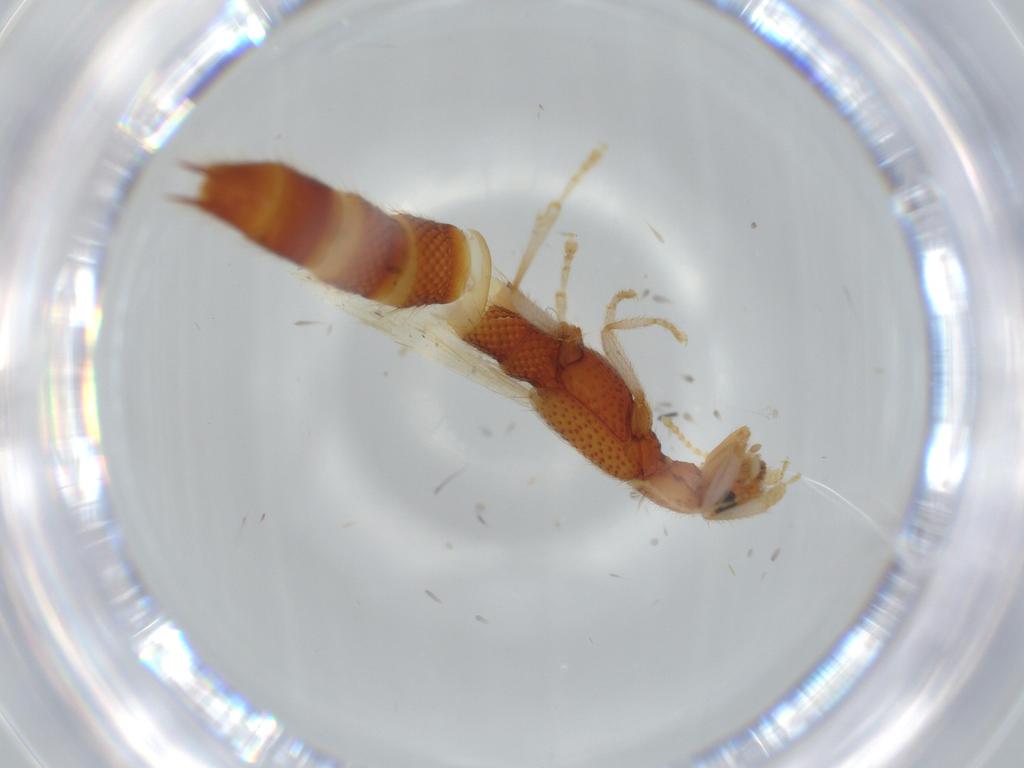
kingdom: Animalia
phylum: Arthropoda
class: Insecta
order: Coleoptera
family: Staphylinidae
